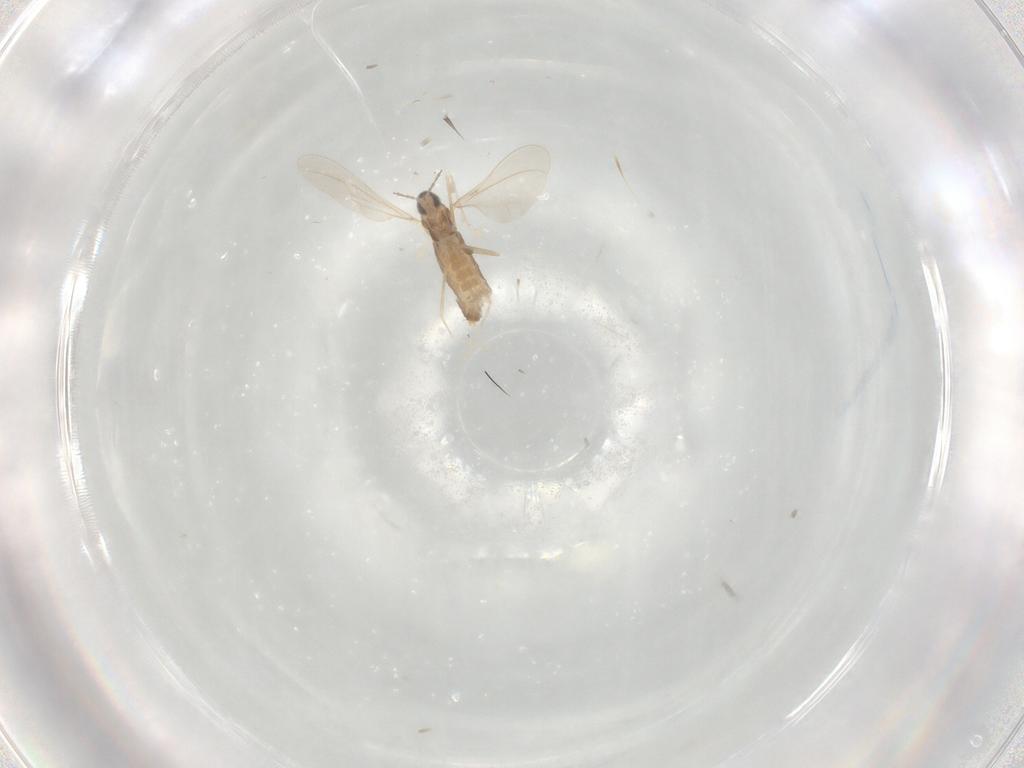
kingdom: Animalia
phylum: Arthropoda
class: Insecta
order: Diptera
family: Cecidomyiidae
